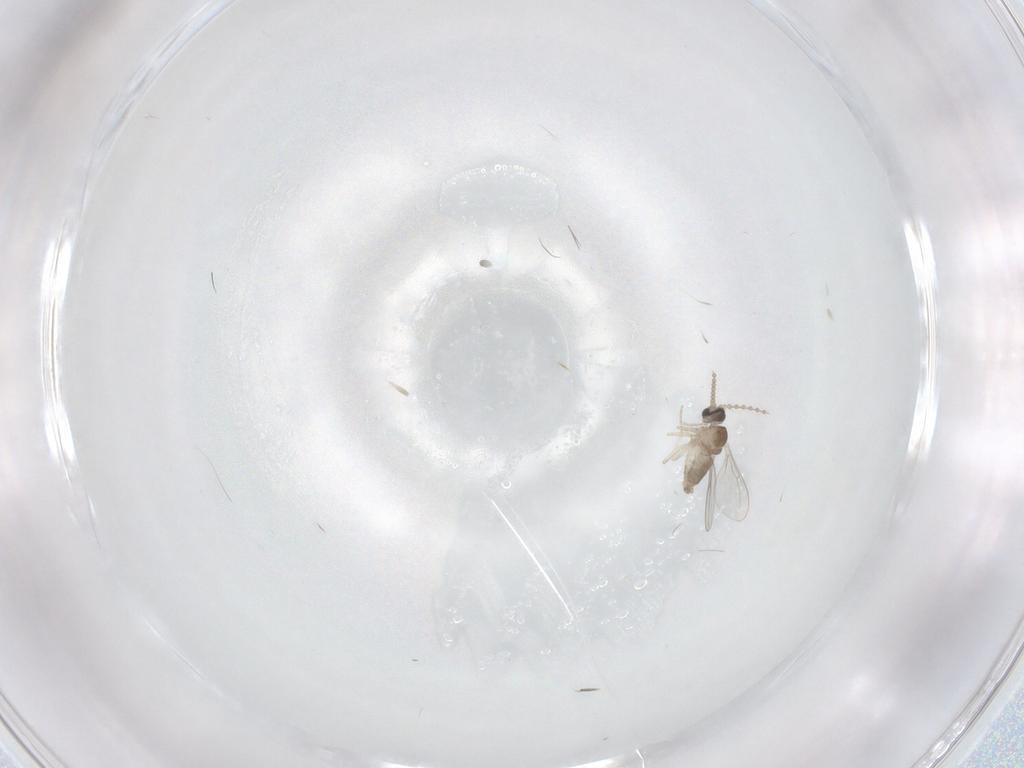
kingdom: Animalia
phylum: Arthropoda
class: Insecta
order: Diptera
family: Cecidomyiidae
